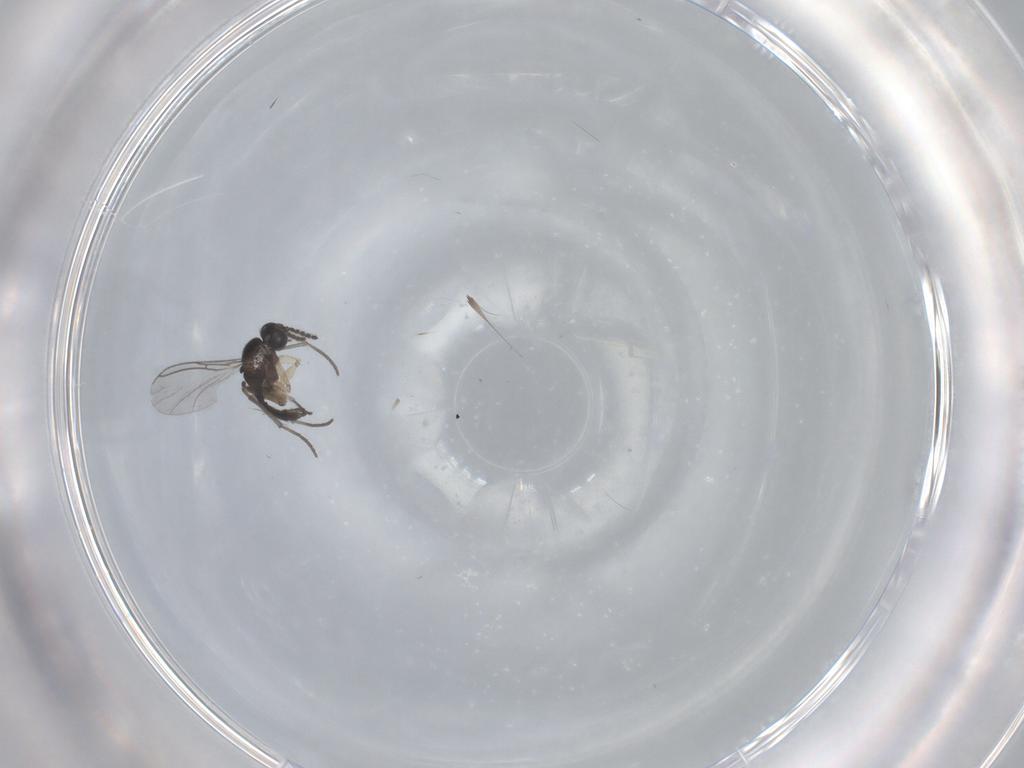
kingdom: Animalia
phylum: Arthropoda
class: Insecta
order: Diptera
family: Sciaridae
